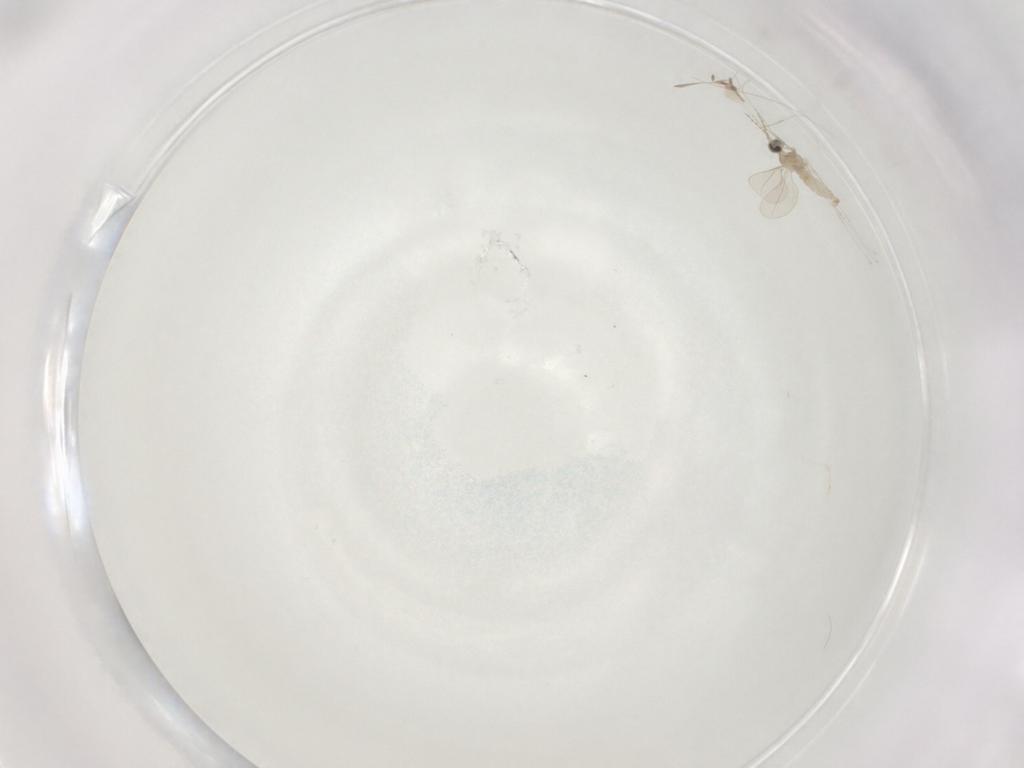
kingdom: Animalia
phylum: Arthropoda
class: Insecta
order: Diptera
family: Cecidomyiidae
